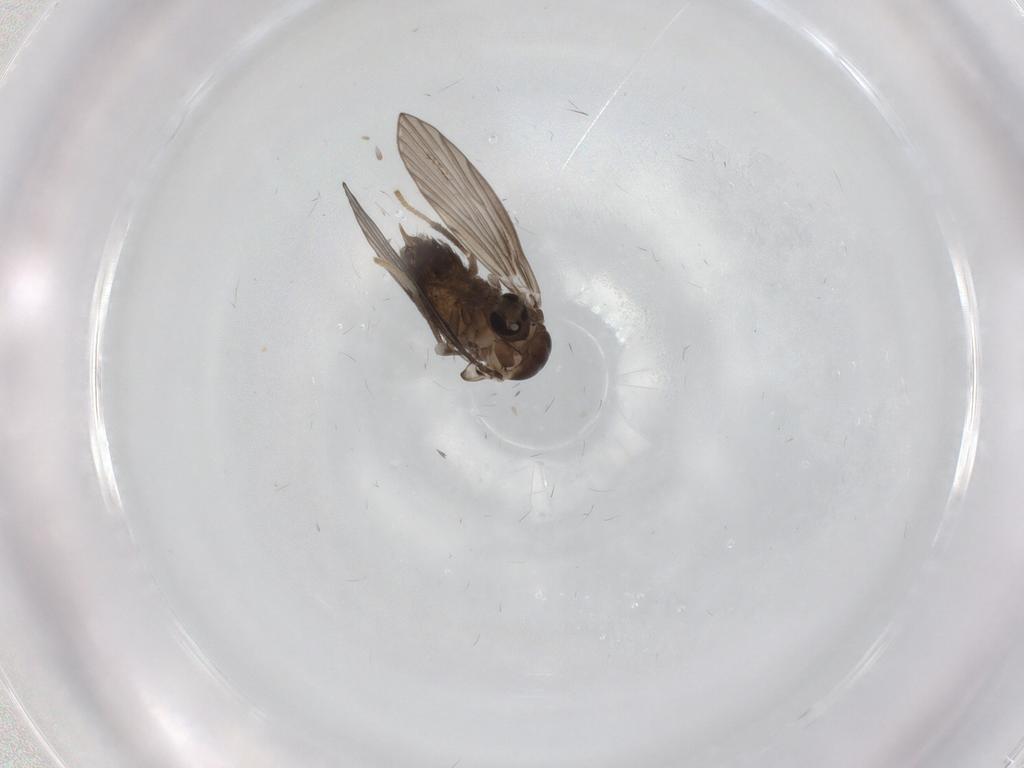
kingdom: Animalia
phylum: Arthropoda
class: Insecta
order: Diptera
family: Psychodidae
